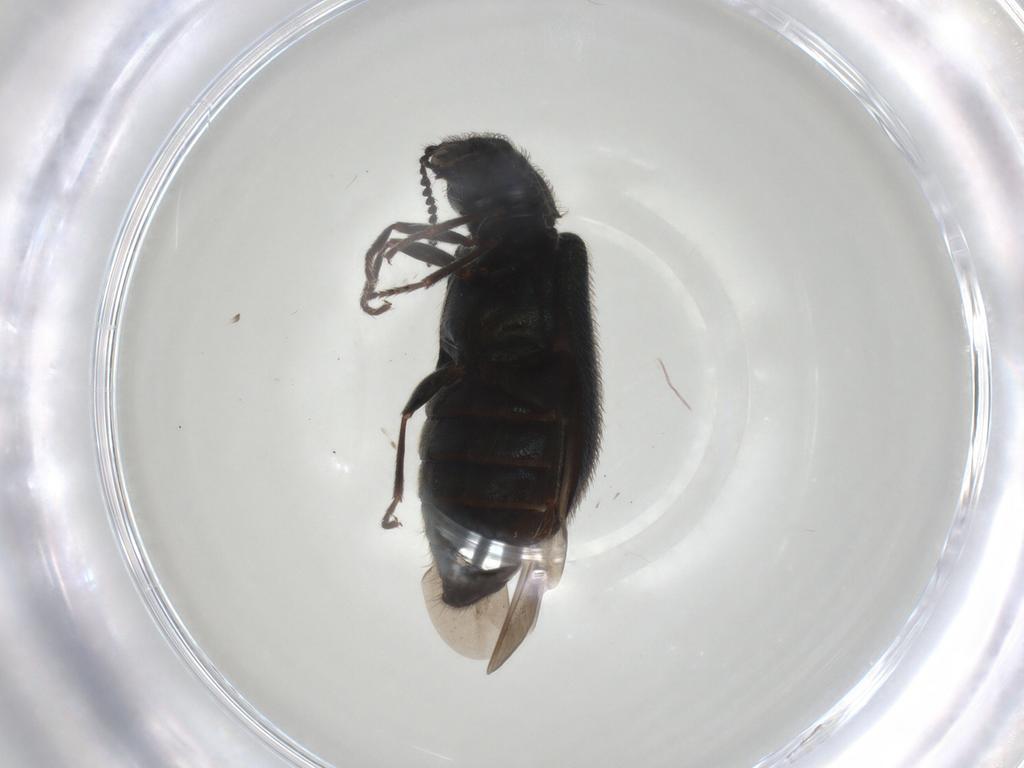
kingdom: Animalia
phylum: Arthropoda
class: Insecta
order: Coleoptera
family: Melyridae
